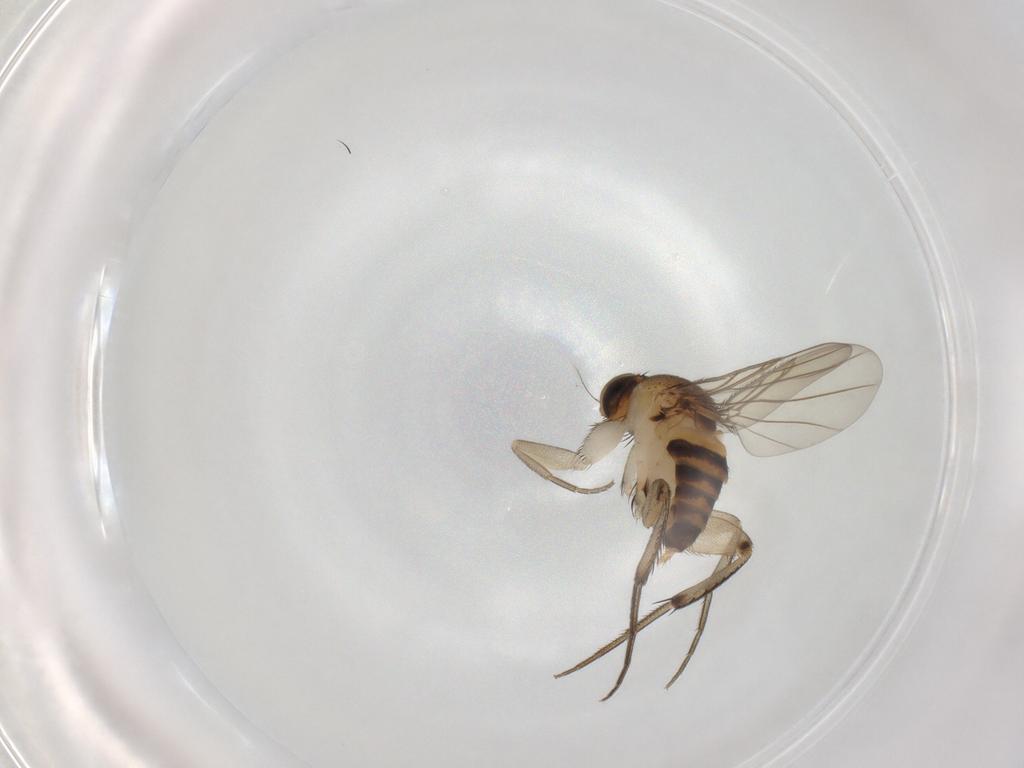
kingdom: Animalia
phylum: Arthropoda
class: Insecta
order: Diptera
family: Phoridae
